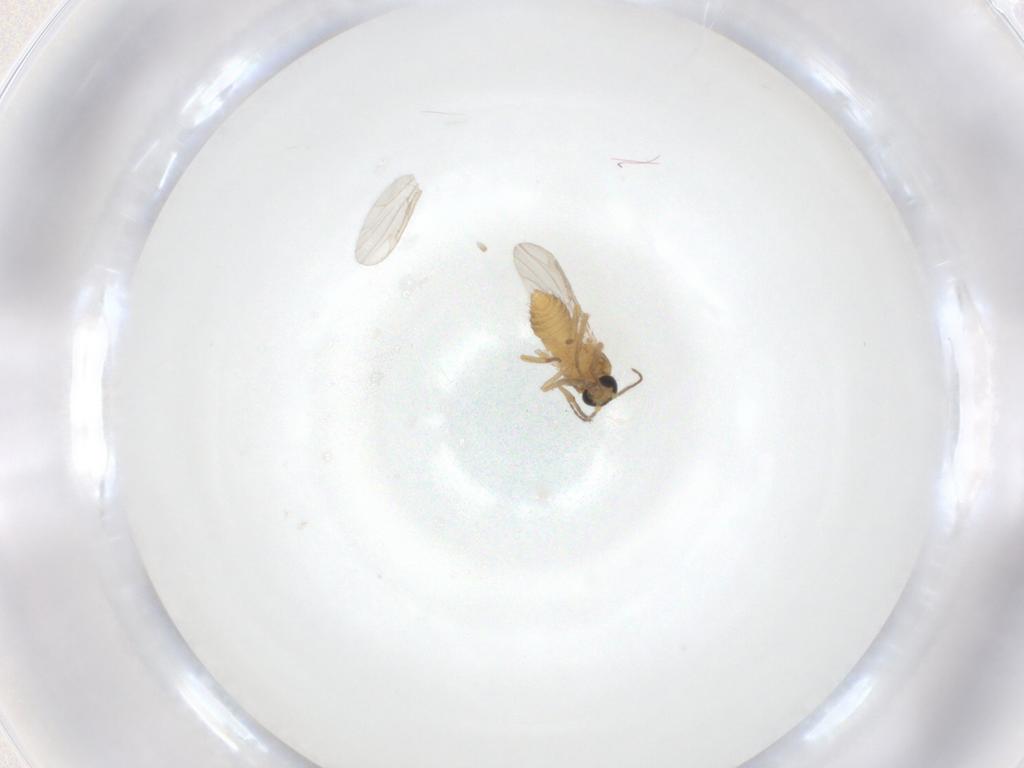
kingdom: Animalia
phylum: Arthropoda
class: Insecta
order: Diptera
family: Ceratopogonidae
